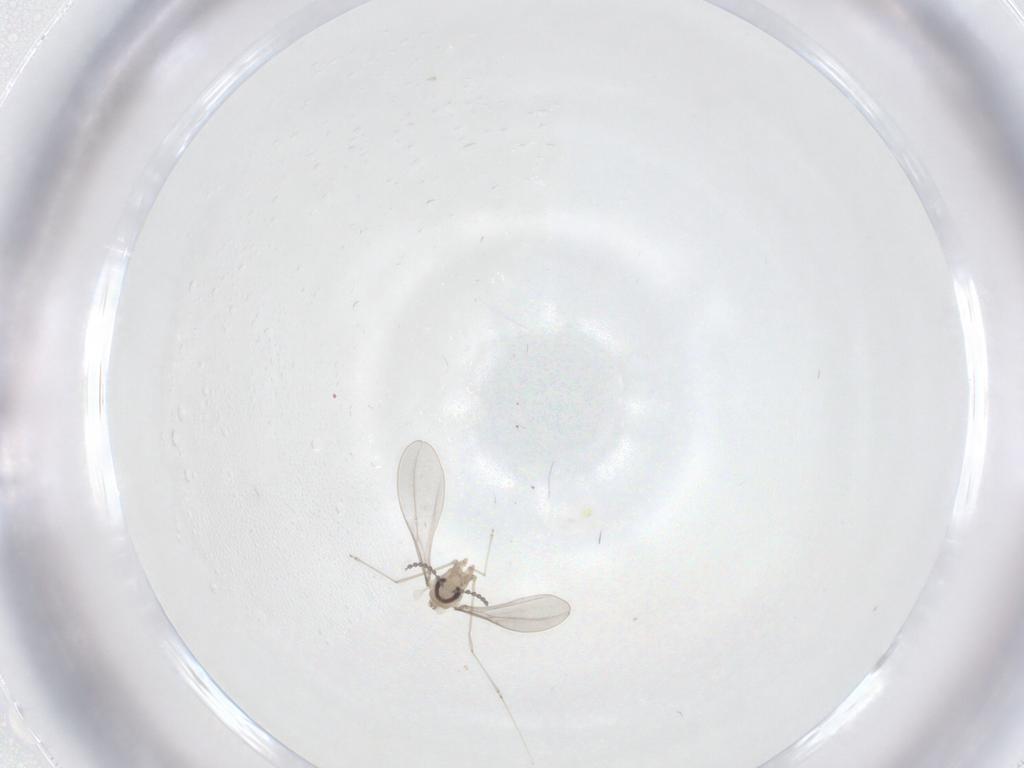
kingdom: Animalia
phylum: Arthropoda
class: Insecta
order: Diptera
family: Cecidomyiidae
